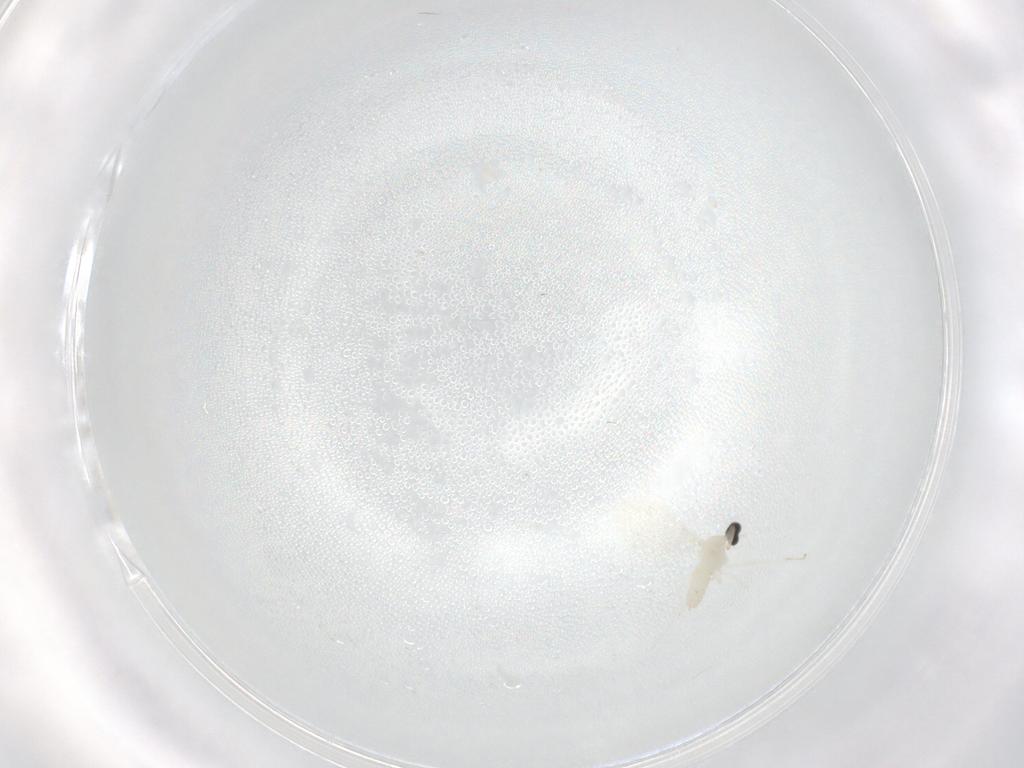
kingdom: Animalia
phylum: Arthropoda
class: Insecta
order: Diptera
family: Cecidomyiidae
